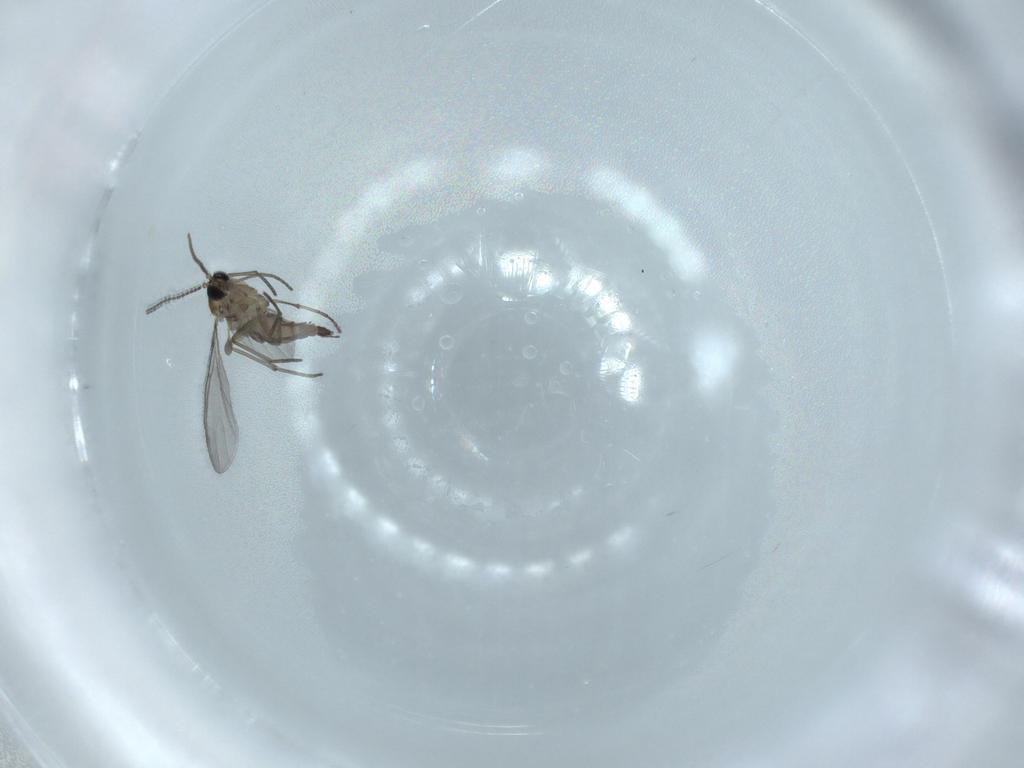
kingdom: Animalia
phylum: Arthropoda
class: Insecta
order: Diptera
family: Sciaridae
